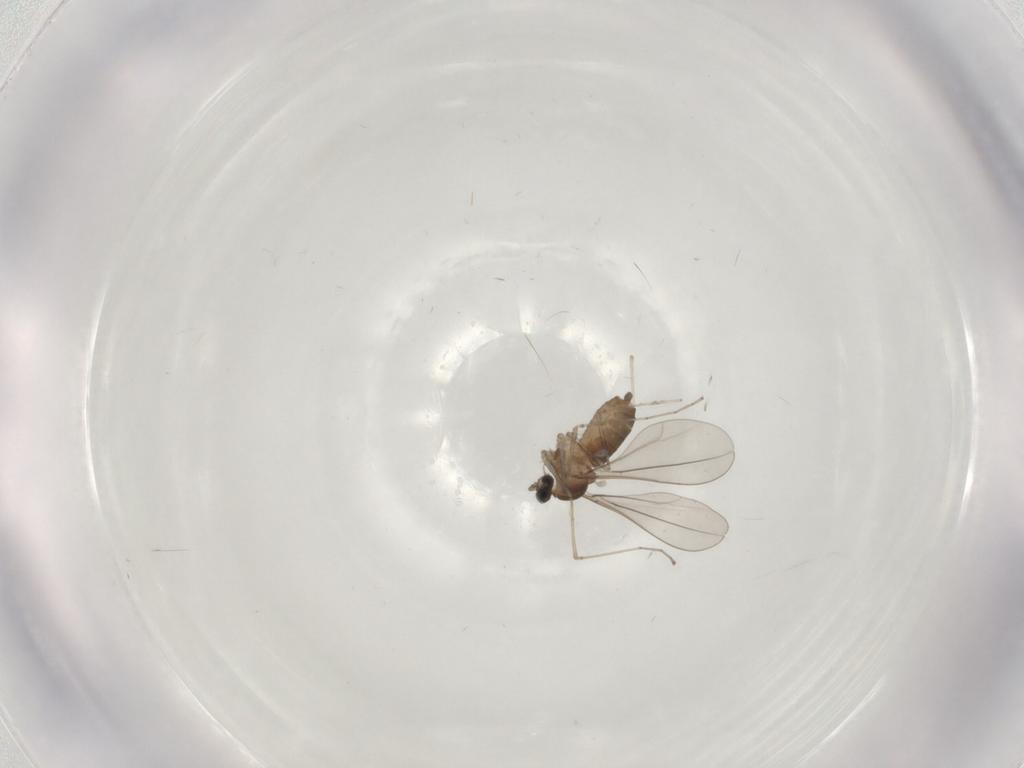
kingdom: Animalia
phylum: Arthropoda
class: Insecta
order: Diptera
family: Cecidomyiidae
